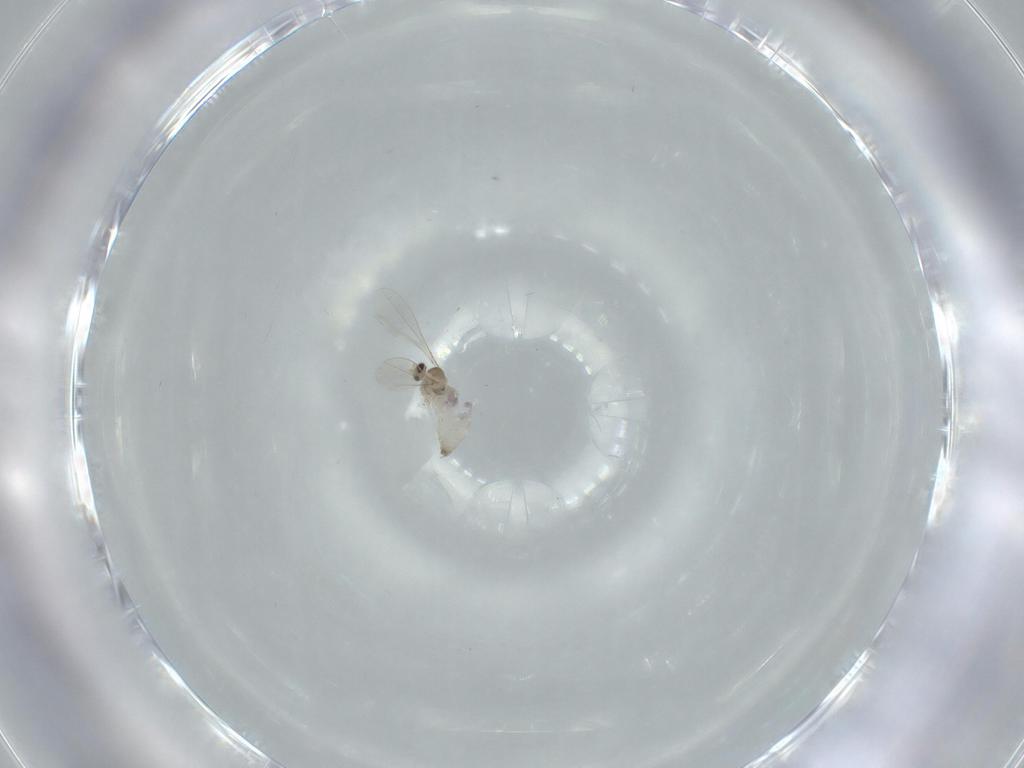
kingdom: Animalia
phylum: Arthropoda
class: Insecta
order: Diptera
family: Cecidomyiidae
